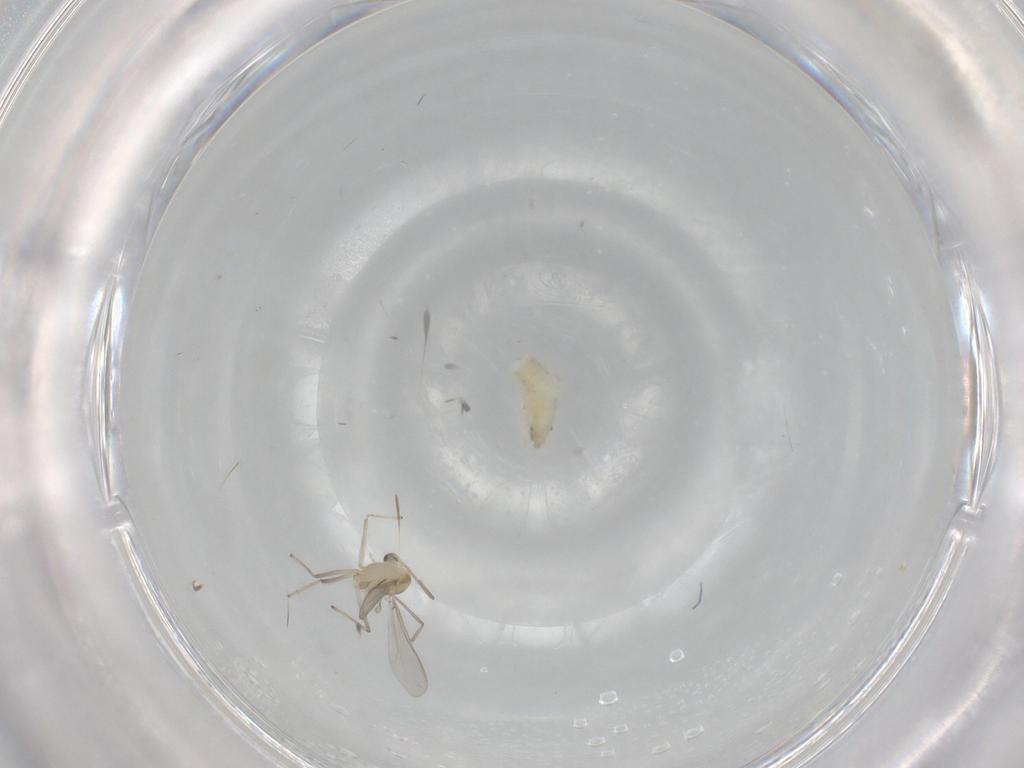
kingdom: Animalia
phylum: Arthropoda
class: Insecta
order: Diptera
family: Chironomidae
